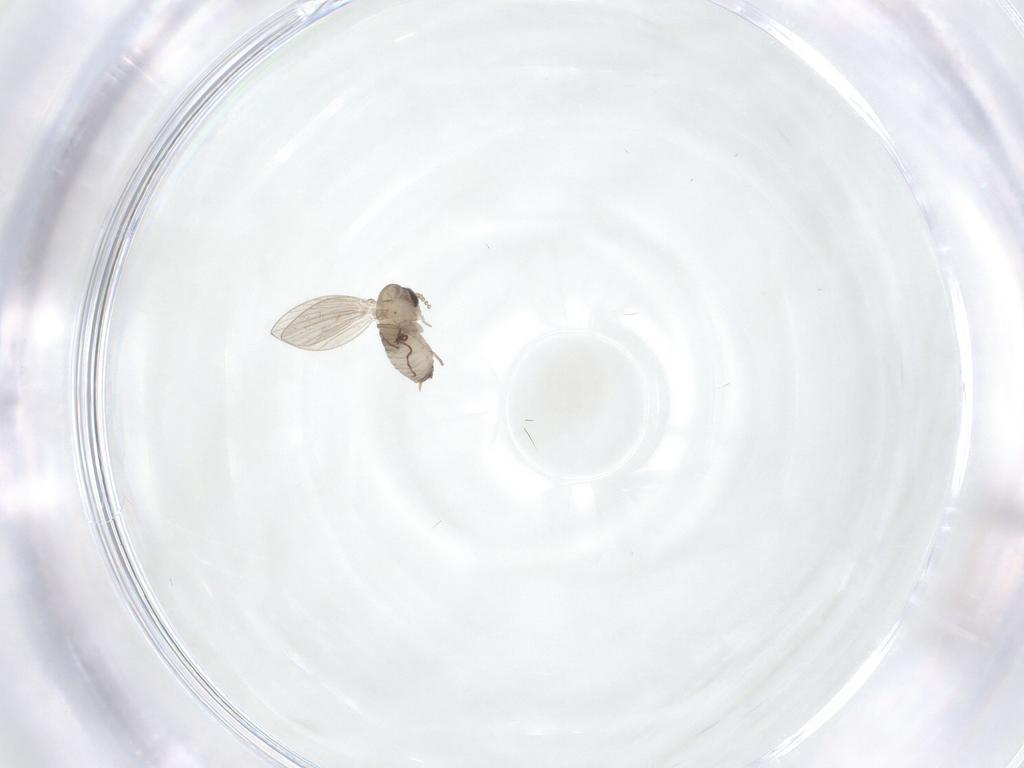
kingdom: Animalia
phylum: Arthropoda
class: Insecta
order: Diptera
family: Psychodidae
